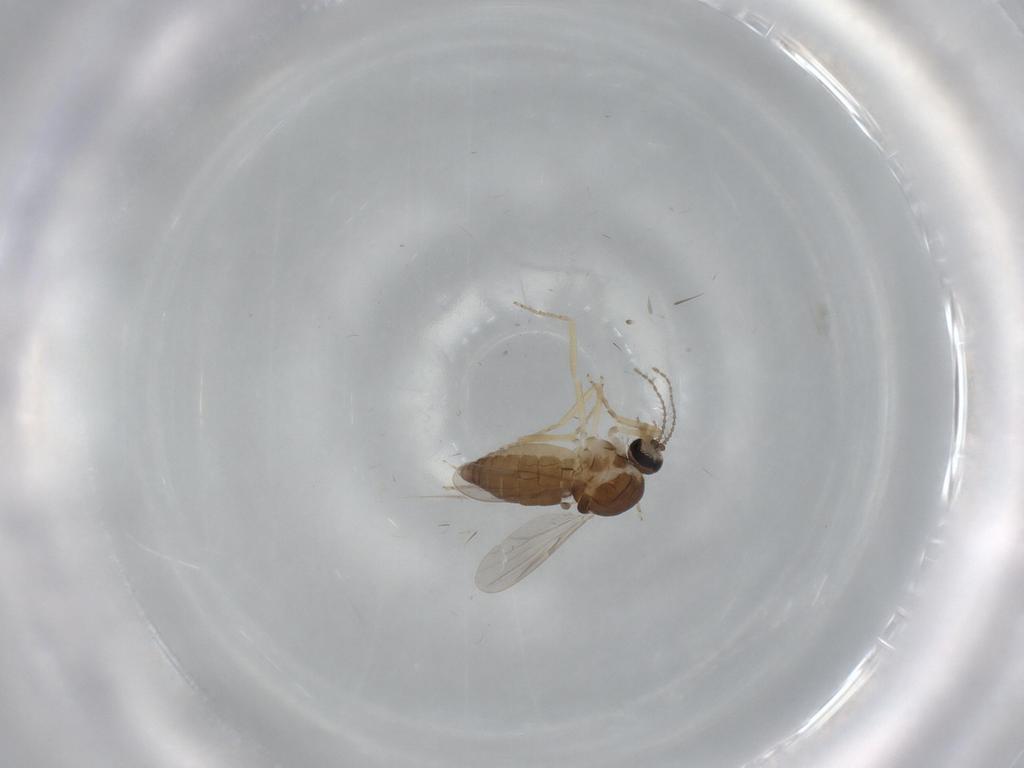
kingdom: Animalia
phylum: Arthropoda
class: Insecta
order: Diptera
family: Ceratopogonidae
